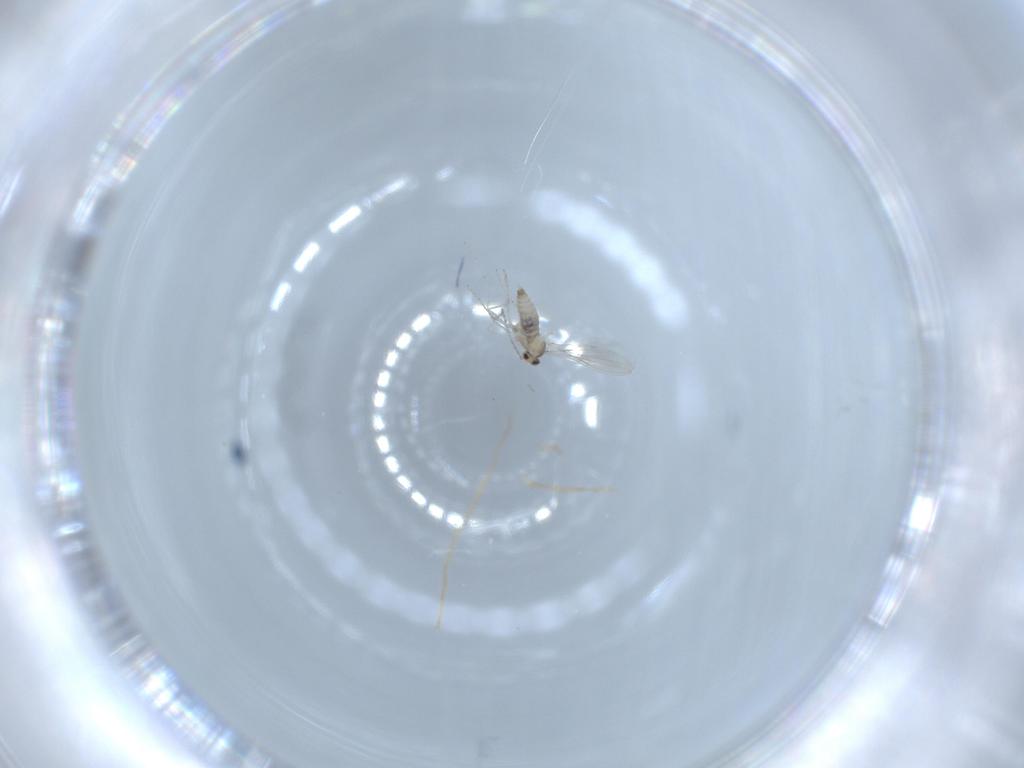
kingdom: Animalia
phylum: Arthropoda
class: Insecta
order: Diptera
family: Cecidomyiidae
